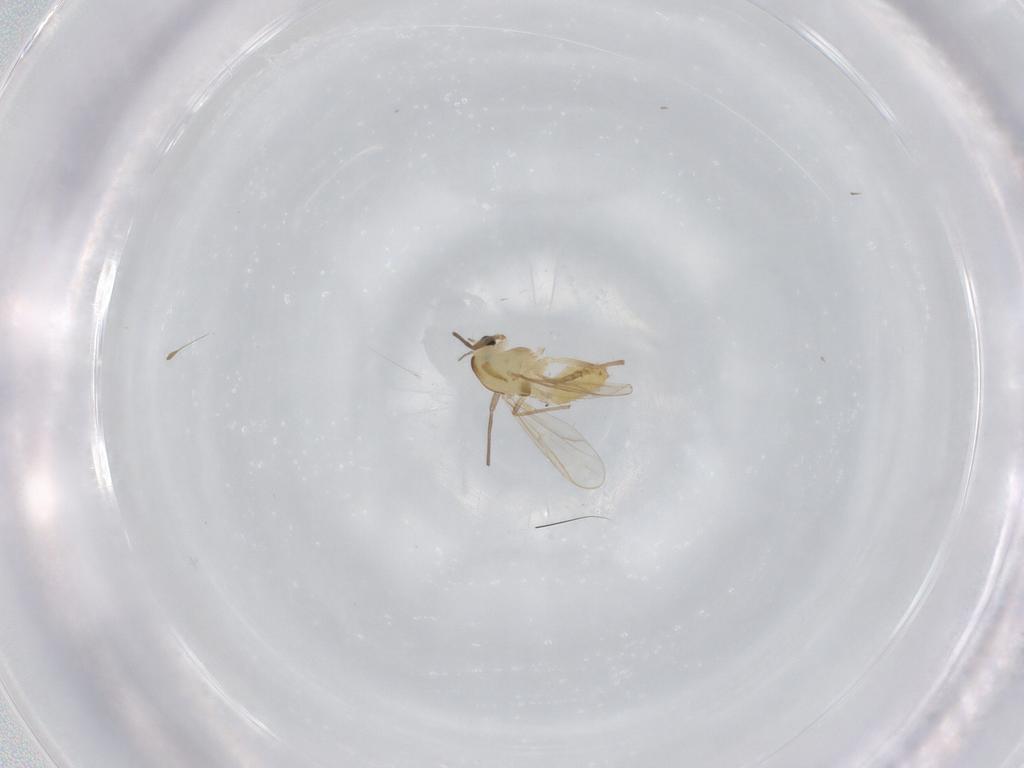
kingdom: Animalia
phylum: Arthropoda
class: Insecta
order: Diptera
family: Chironomidae
